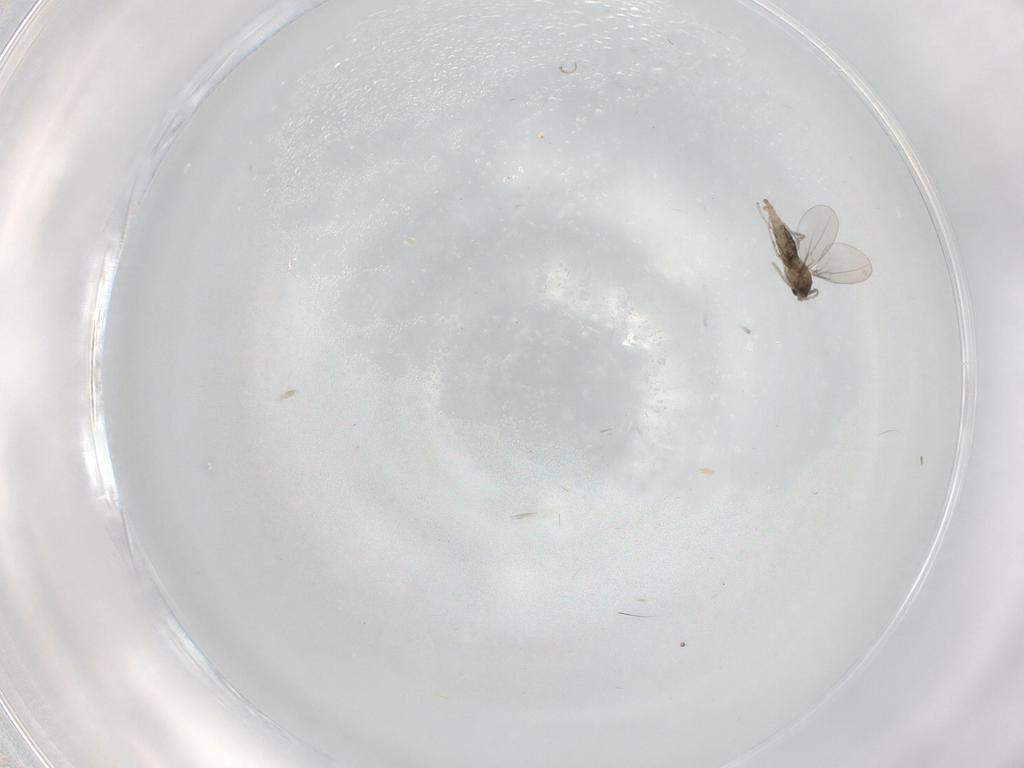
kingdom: Animalia
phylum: Arthropoda
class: Insecta
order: Diptera
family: Cecidomyiidae
